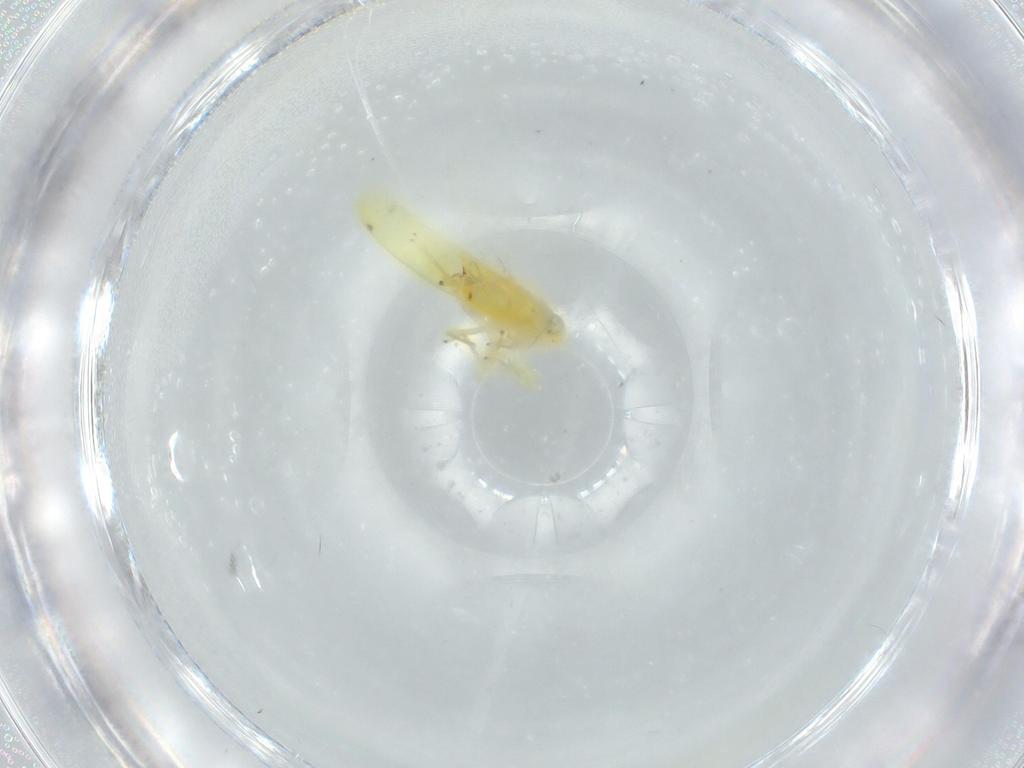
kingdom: Animalia
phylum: Arthropoda
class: Insecta
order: Hemiptera
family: Cicadellidae
